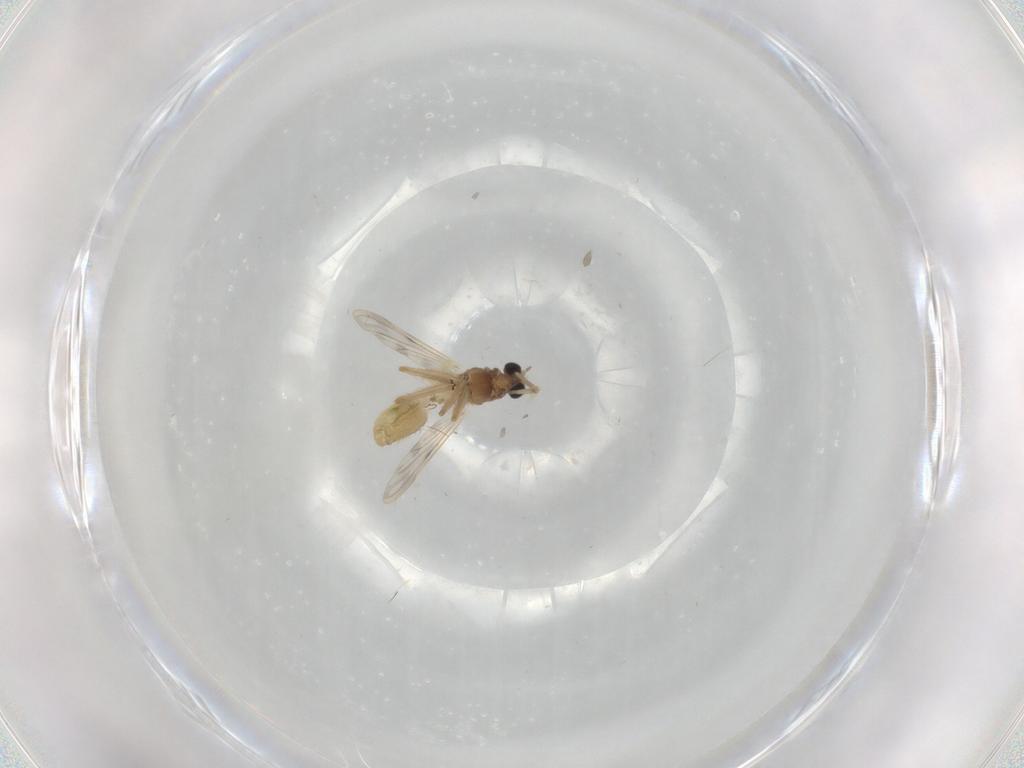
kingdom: Animalia
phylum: Arthropoda
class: Insecta
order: Diptera
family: Chironomidae
